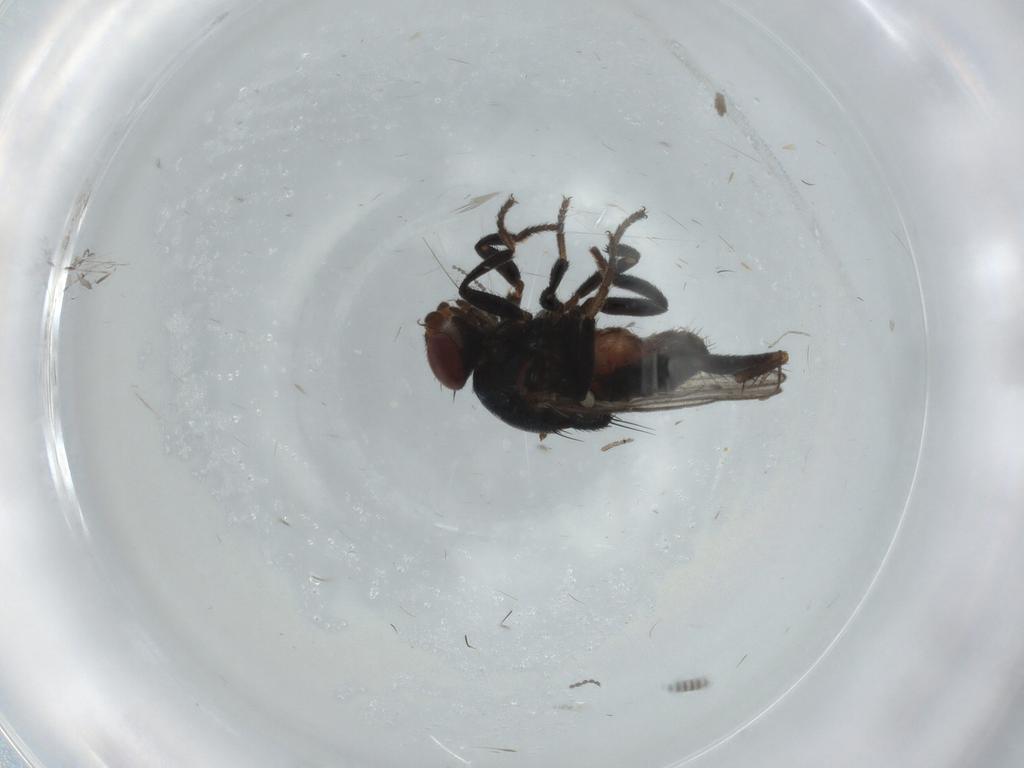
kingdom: Animalia
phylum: Arthropoda
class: Insecta
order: Diptera
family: Chloropidae
